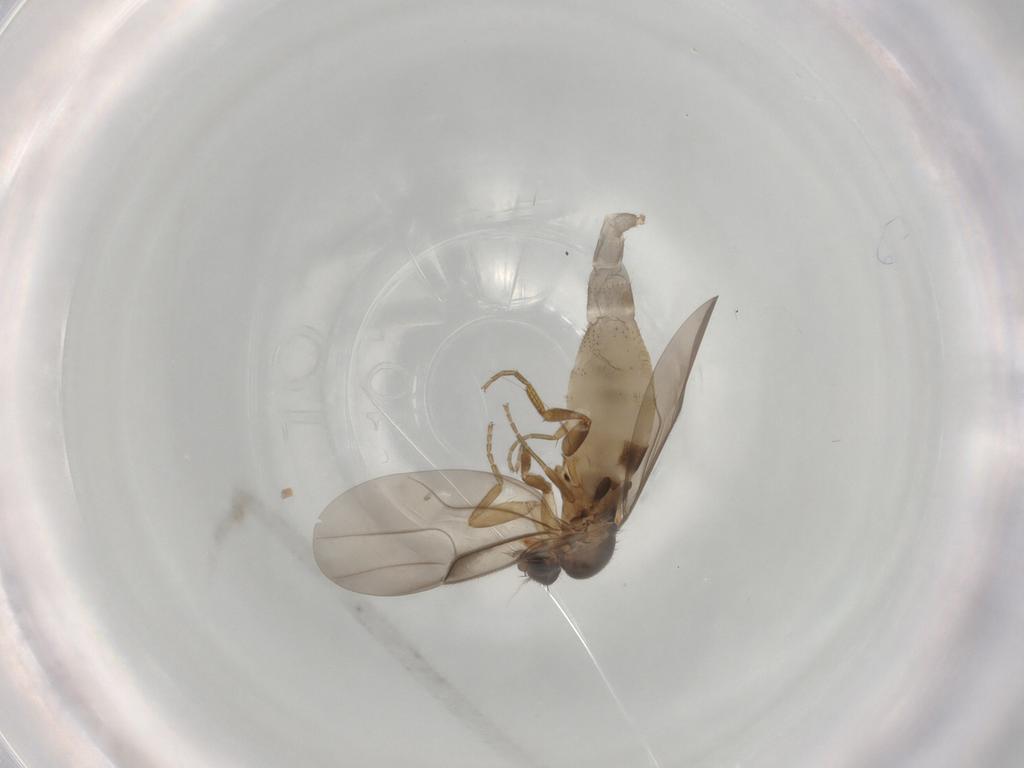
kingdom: Animalia
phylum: Arthropoda
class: Insecta
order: Diptera
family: Phoridae
